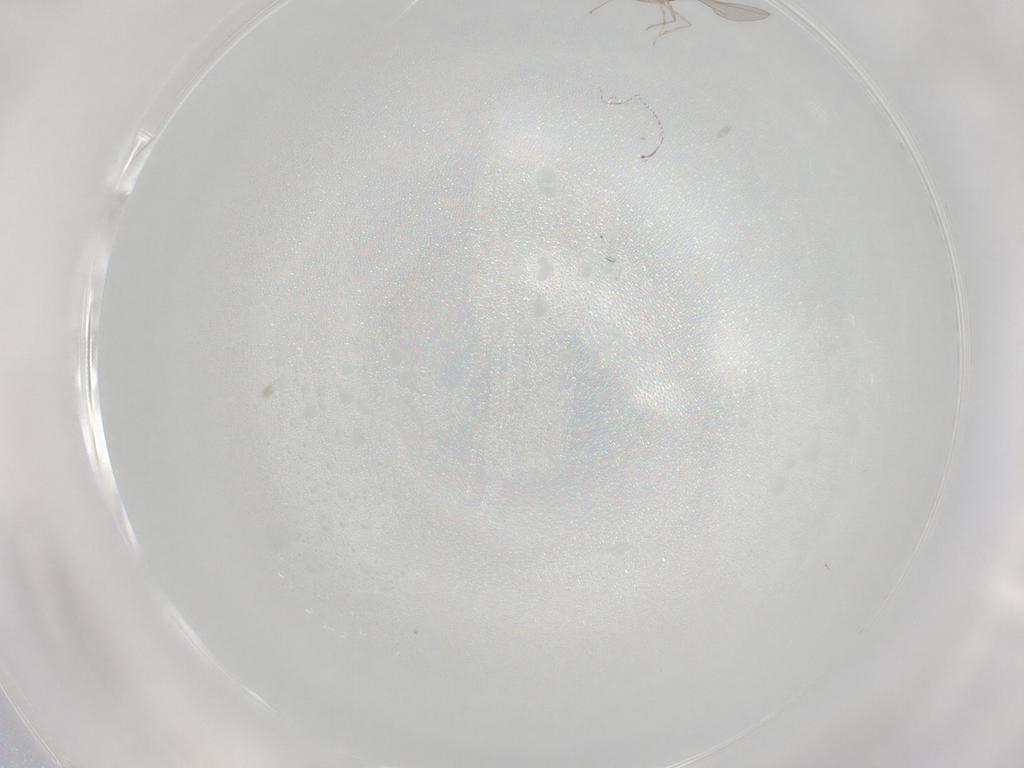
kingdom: Animalia
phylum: Arthropoda
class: Insecta
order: Diptera
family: Cecidomyiidae
